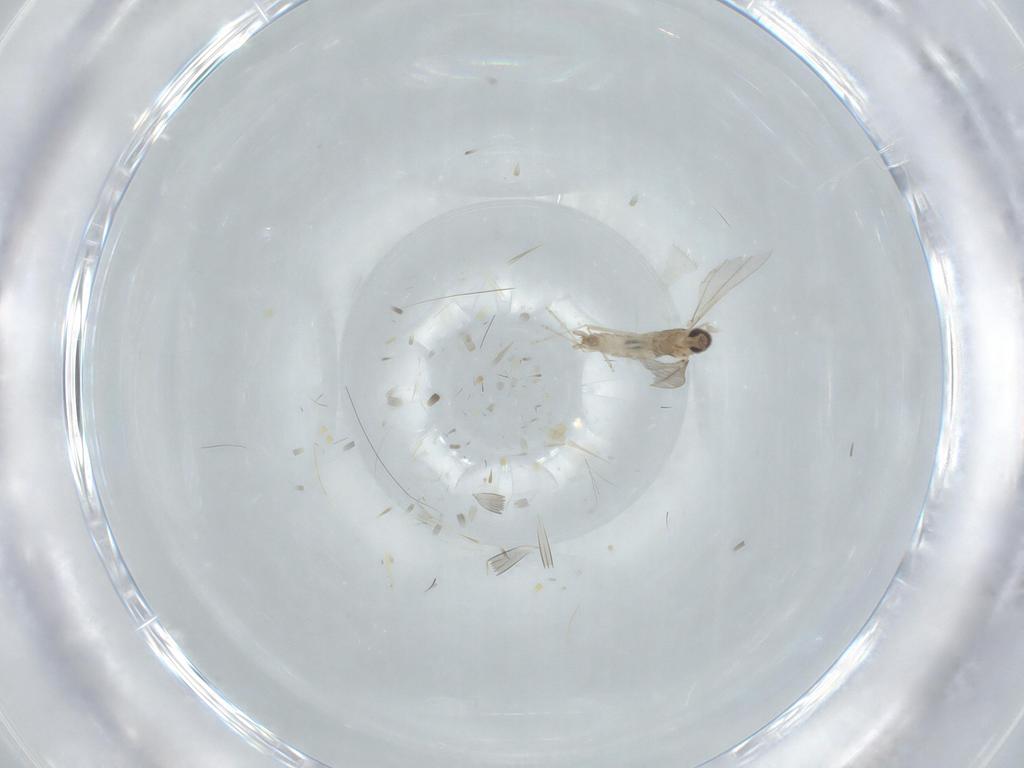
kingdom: Animalia
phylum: Arthropoda
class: Insecta
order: Diptera
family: Cecidomyiidae
